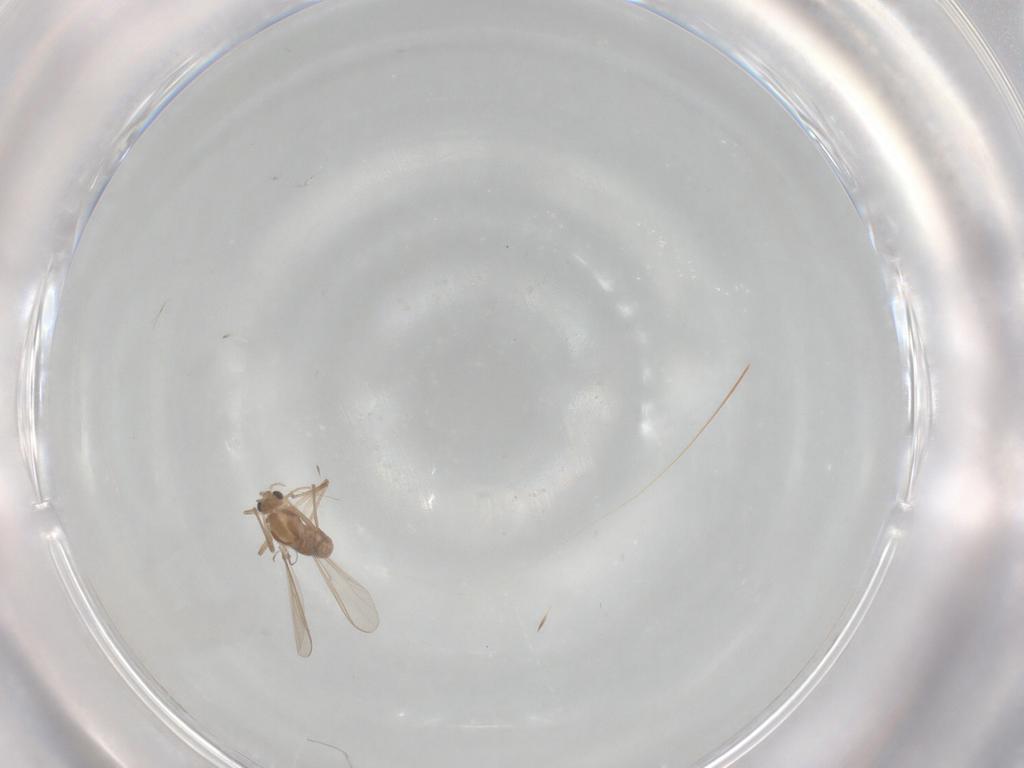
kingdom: Animalia
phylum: Arthropoda
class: Insecta
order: Diptera
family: Chironomidae
